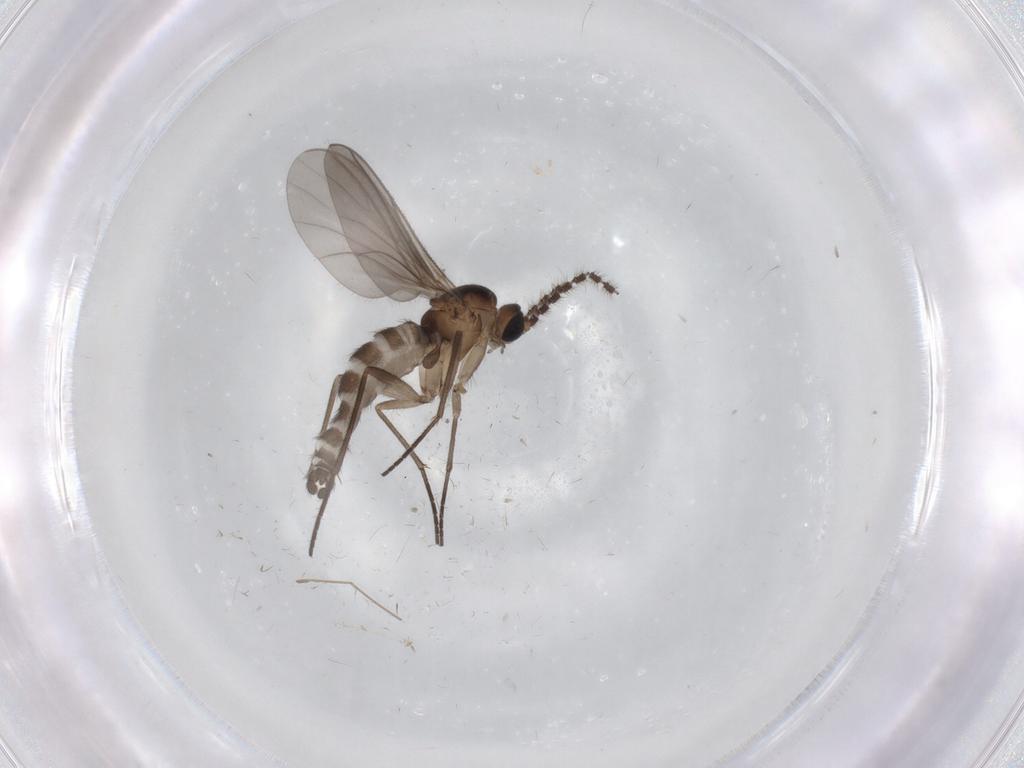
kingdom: Animalia
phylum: Arthropoda
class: Insecta
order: Diptera
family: Sciaridae
